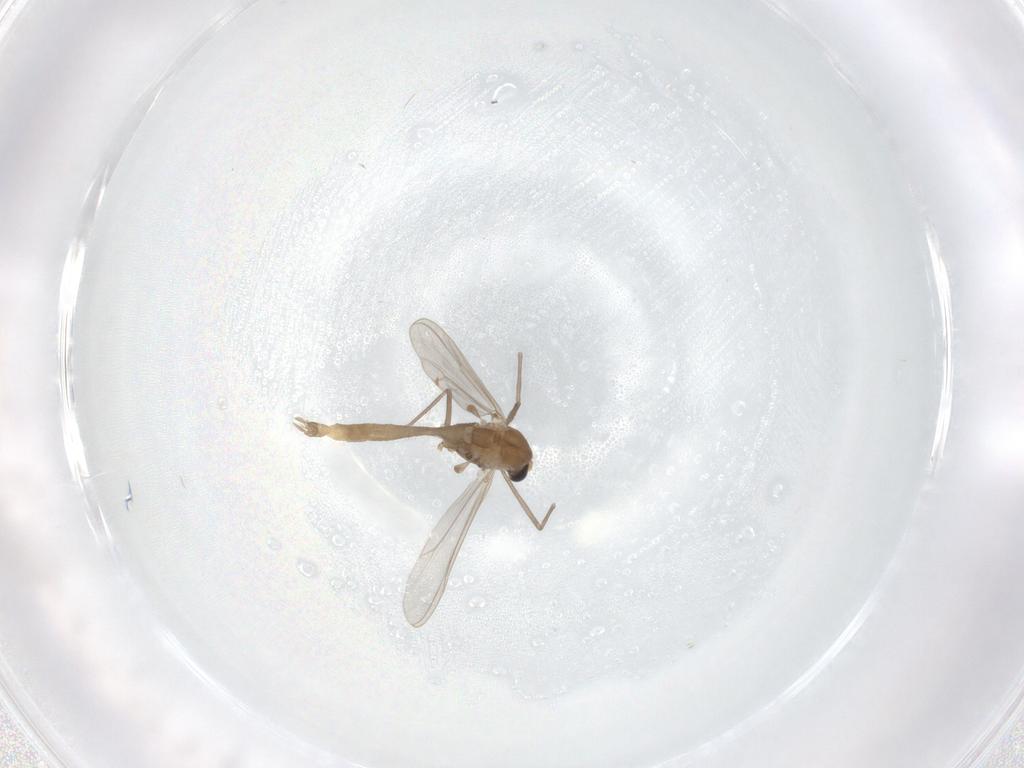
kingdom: Animalia
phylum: Arthropoda
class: Insecta
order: Diptera
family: Chironomidae
